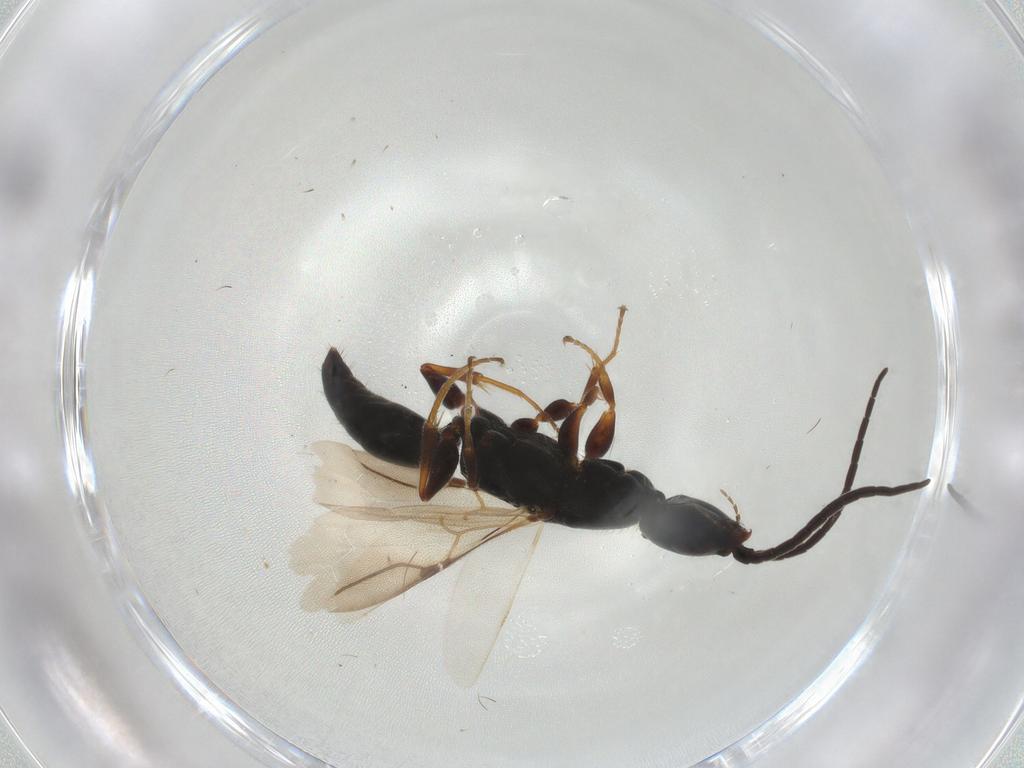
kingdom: Animalia
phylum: Arthropoda
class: Insecta
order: Hymenoptera
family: Bethylidae
